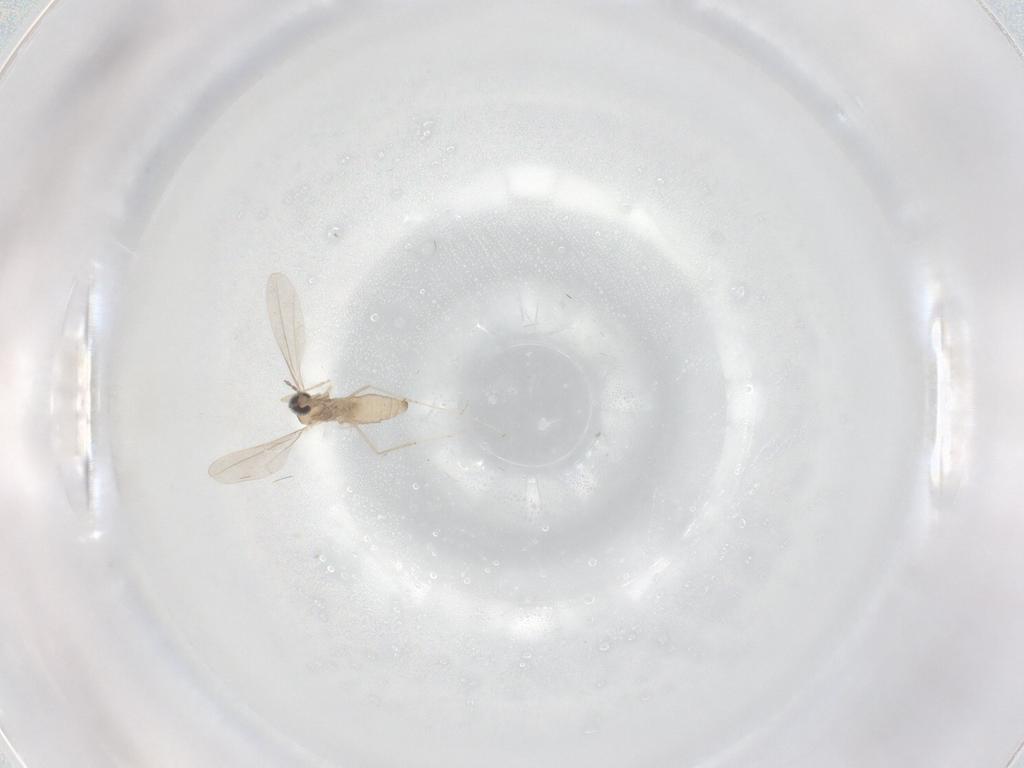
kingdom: Animalia
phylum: Arthropoda
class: Insecta
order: Diptera
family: Cecidomyiidae
